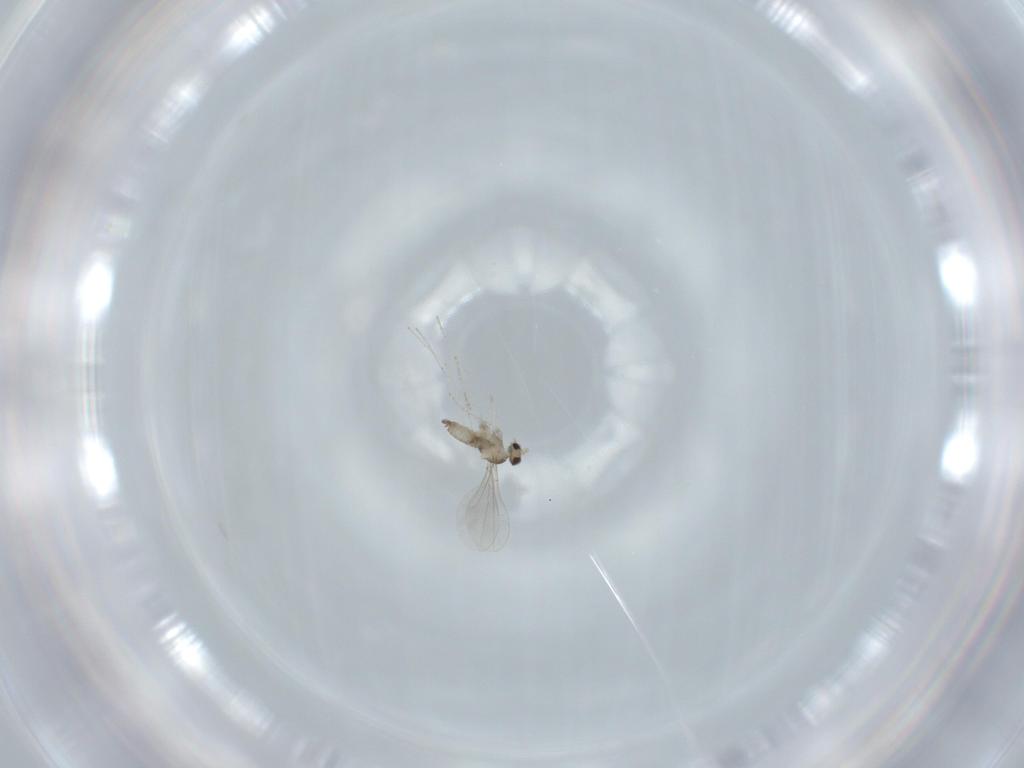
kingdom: Animalia
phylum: Arthropoda
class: Insecta
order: Diptera
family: Cecidomyiidae
